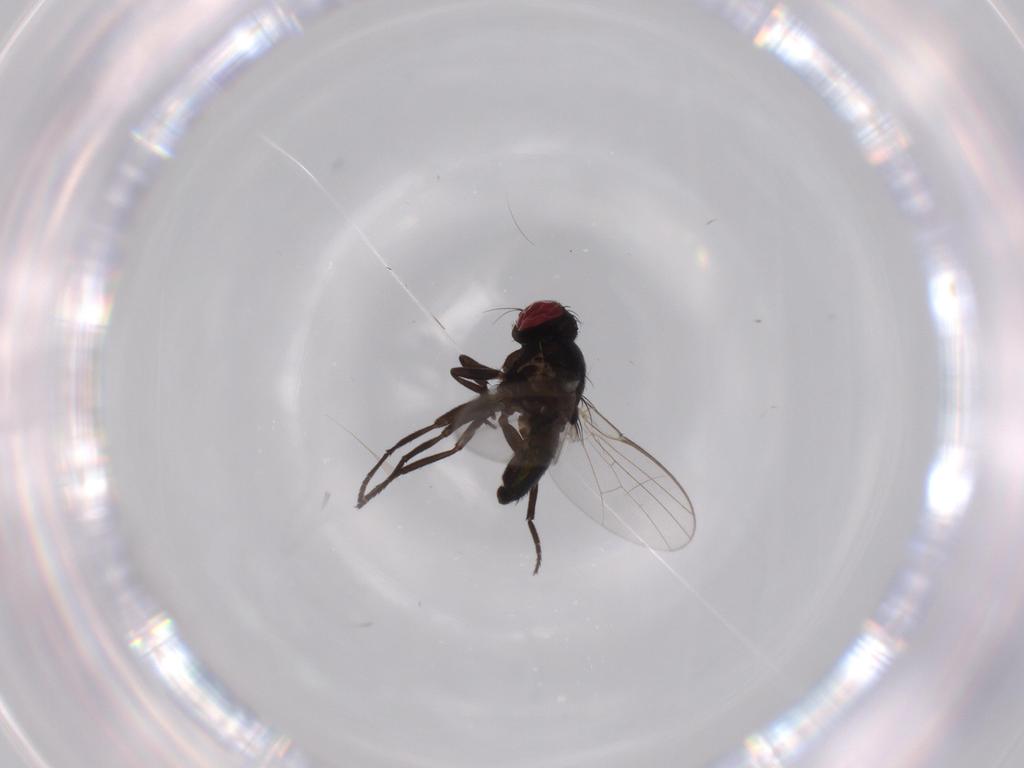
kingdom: Animalia
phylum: Arthropoda
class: Insecta
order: Diptera
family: Agromyzidae
